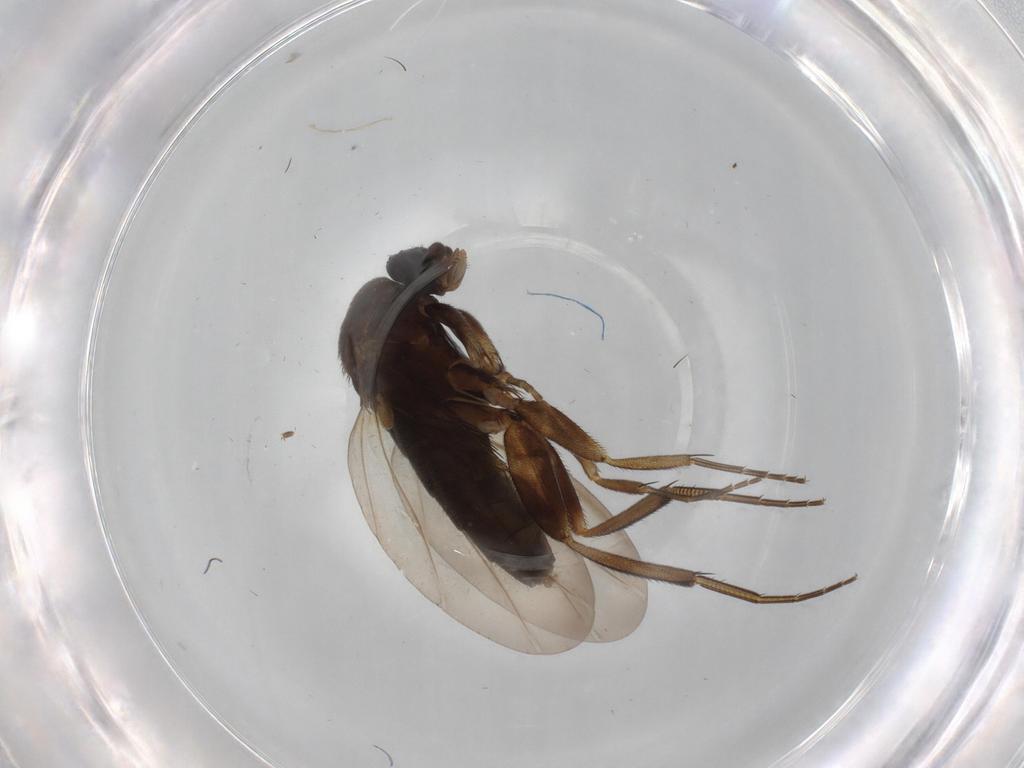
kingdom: Animalia
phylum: Arthropoda
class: Insecta
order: Diptera
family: Phoridae
